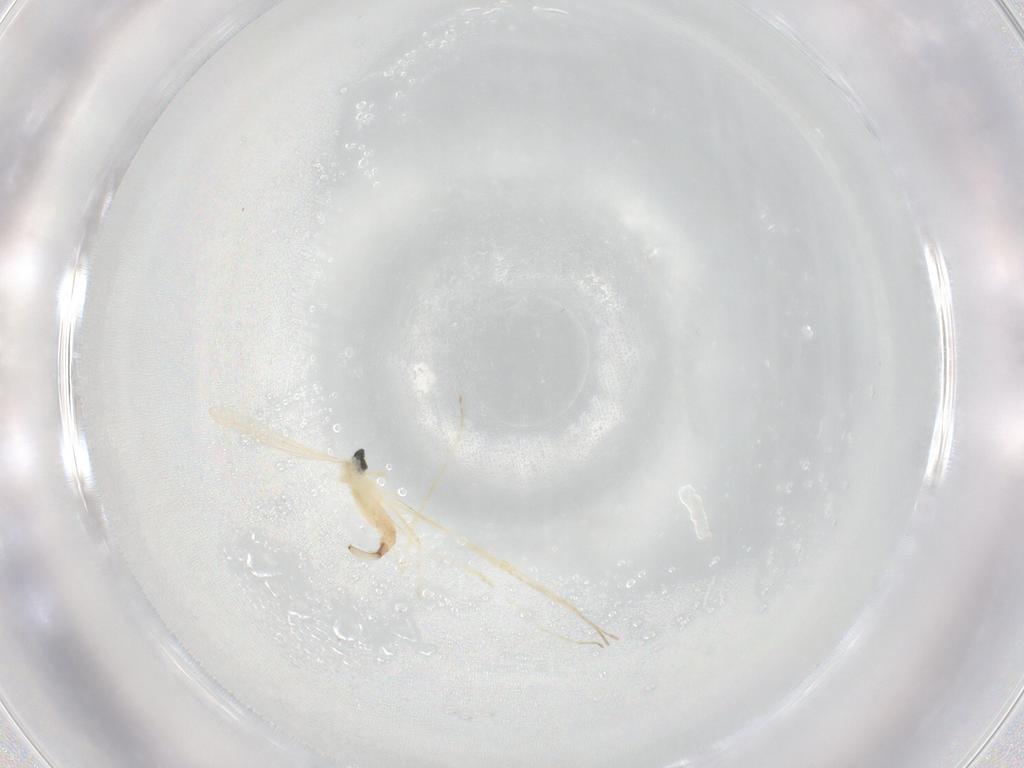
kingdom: Animalia
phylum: Arthropoda
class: Insecta
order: Diptera
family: Cecidomyiidae
